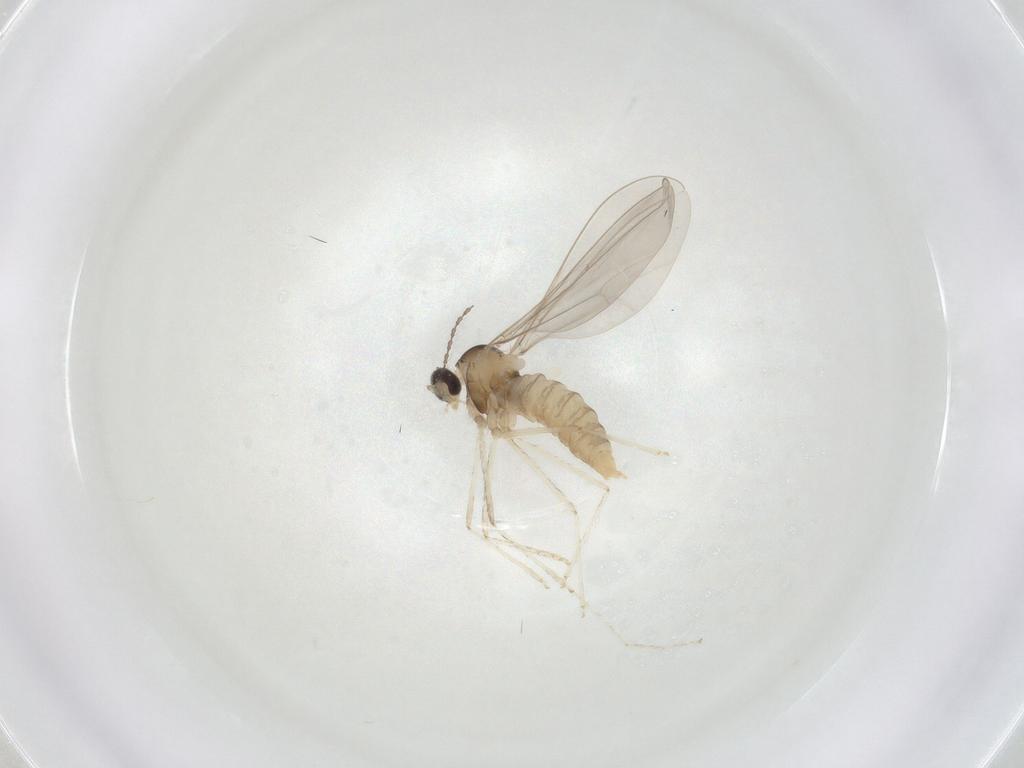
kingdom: Animalia
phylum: Arthropoda
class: Insecta
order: Diptera
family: Cecidomyiidae
